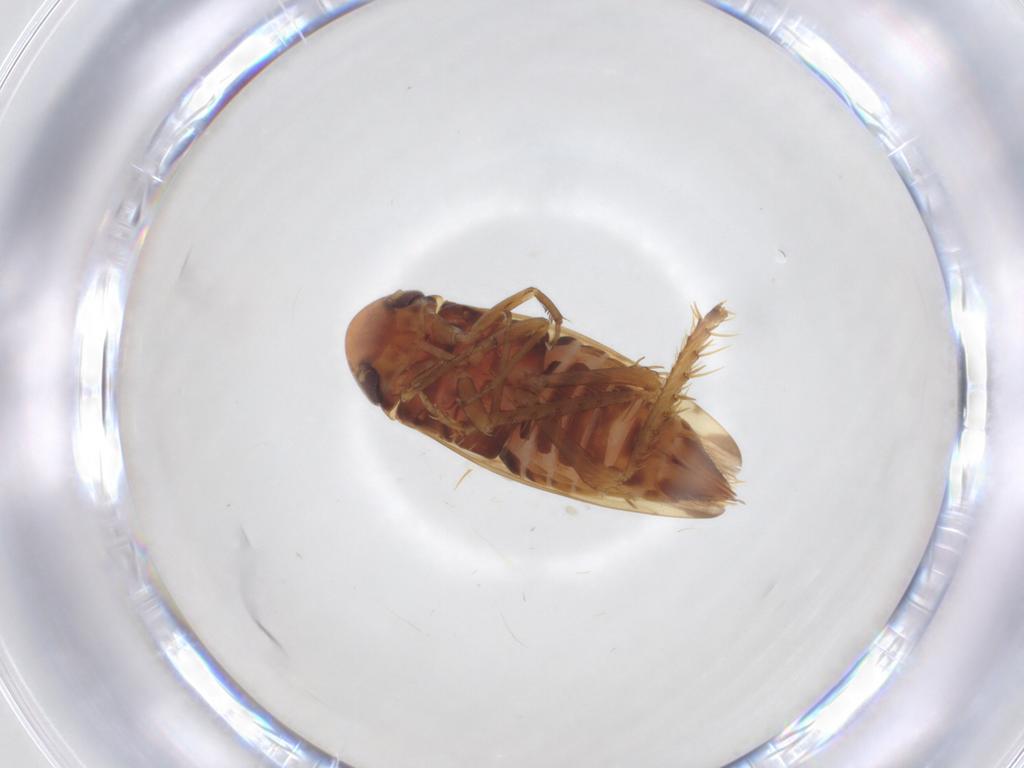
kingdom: Animalia
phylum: Arthropoda
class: Insecta
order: Hemiptera
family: Cicadellidae
